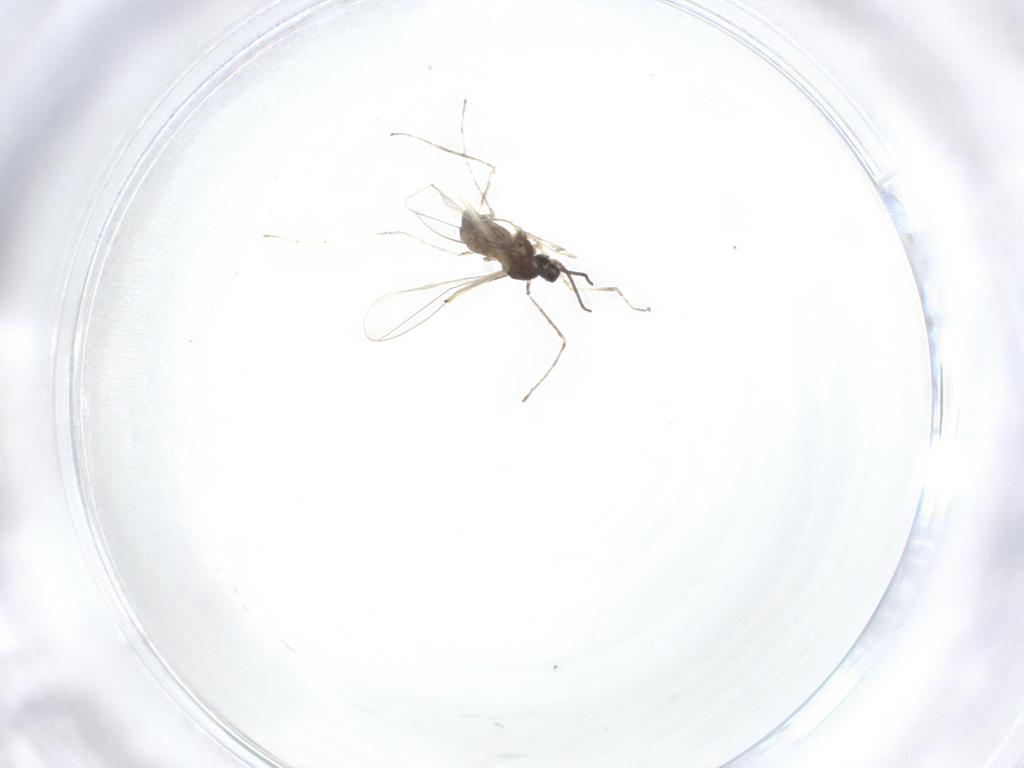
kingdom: Animalia
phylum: Arthropoda
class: Insecta
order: Diptera
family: Chironomidae
